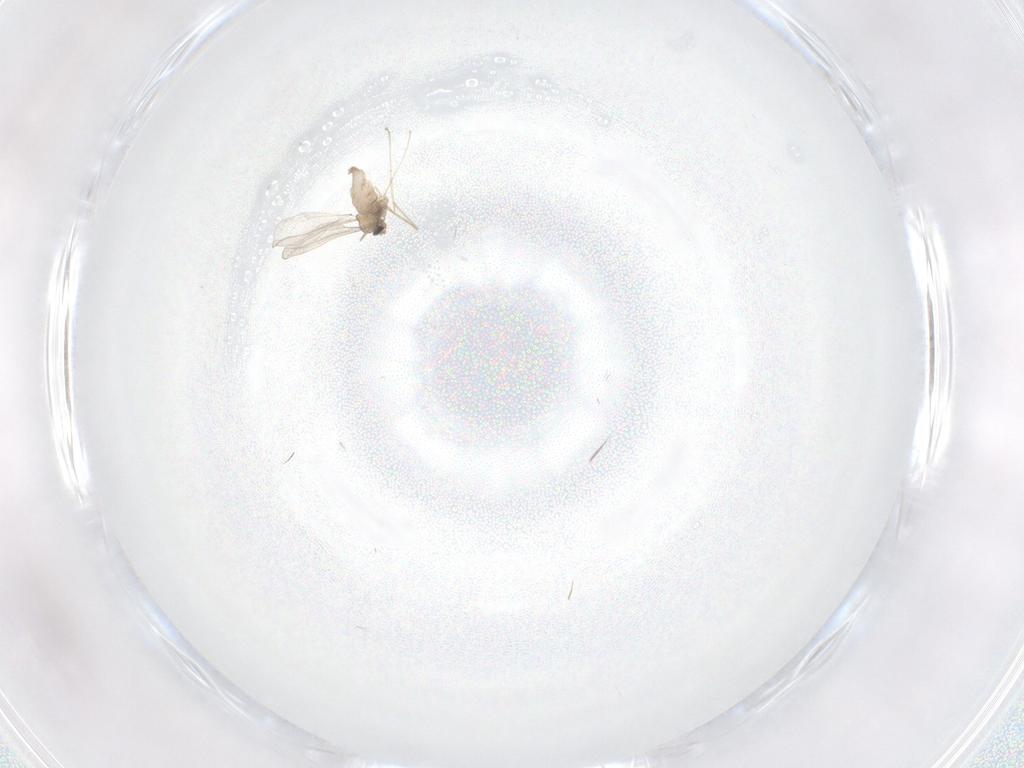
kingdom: Animalia
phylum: Arthropoda
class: Insecta
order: Diptera
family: Cecidomyiidae
